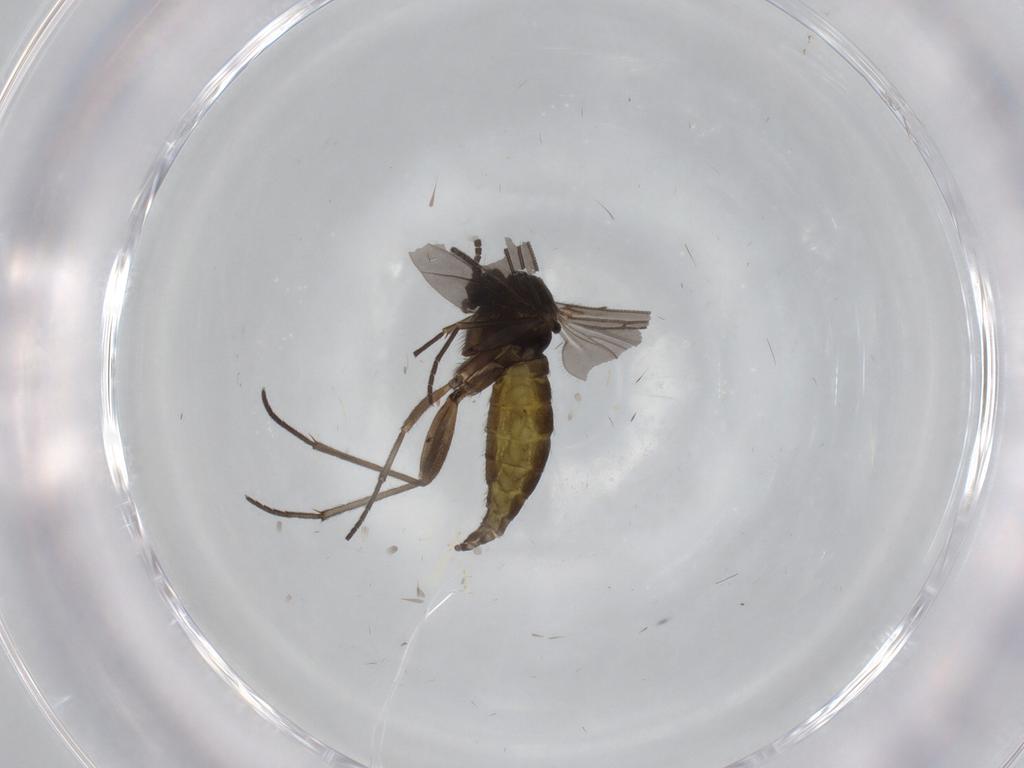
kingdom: Animalia
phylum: Arthropoda
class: Insecta
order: Diptera
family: Sciaridae
